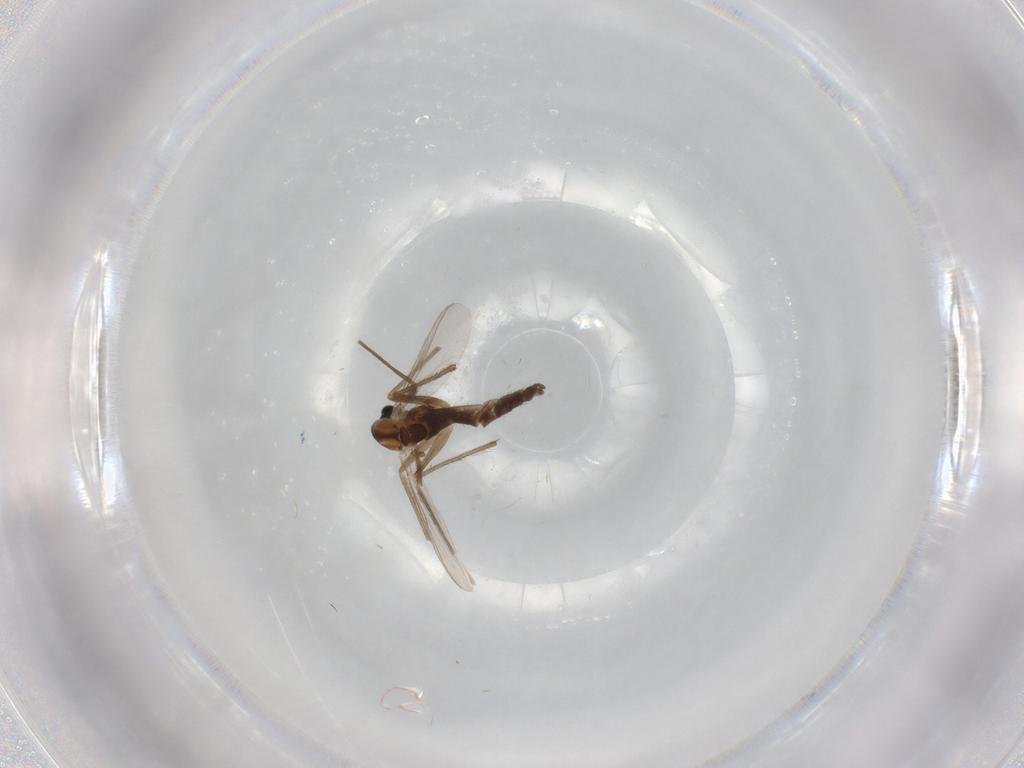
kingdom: Animalia
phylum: Arthropoda
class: Insecta
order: Diptera
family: Chironomidae
